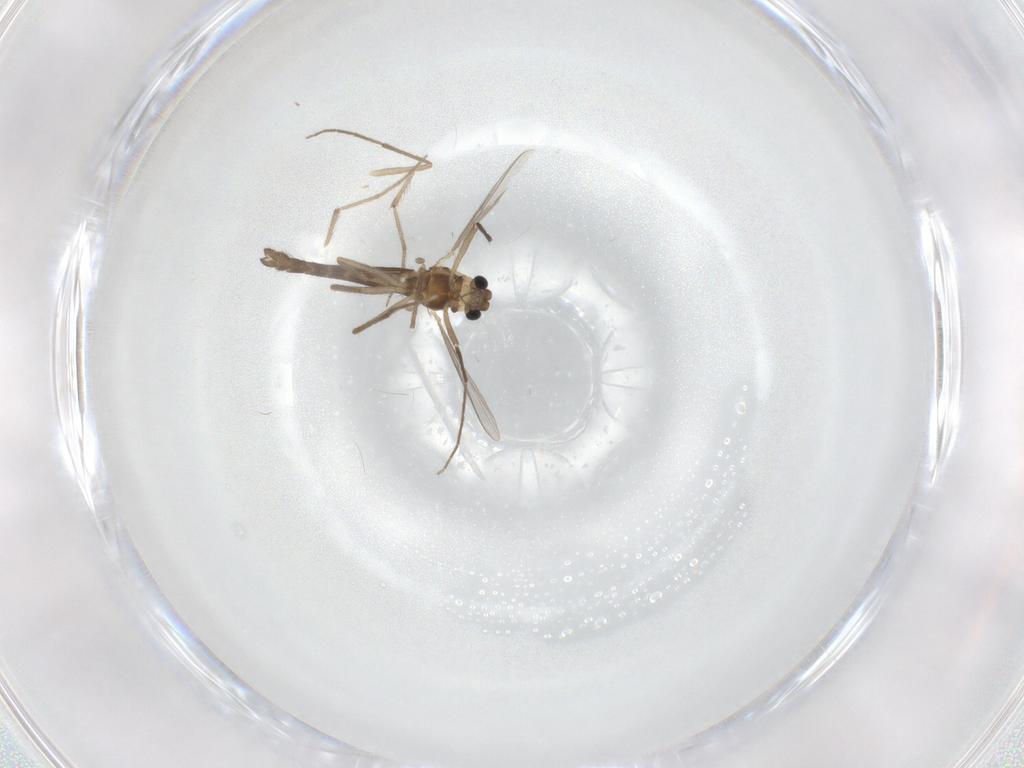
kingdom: Animalia
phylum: Arthropoda
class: Insecta
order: Diptera
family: Chironomidae
